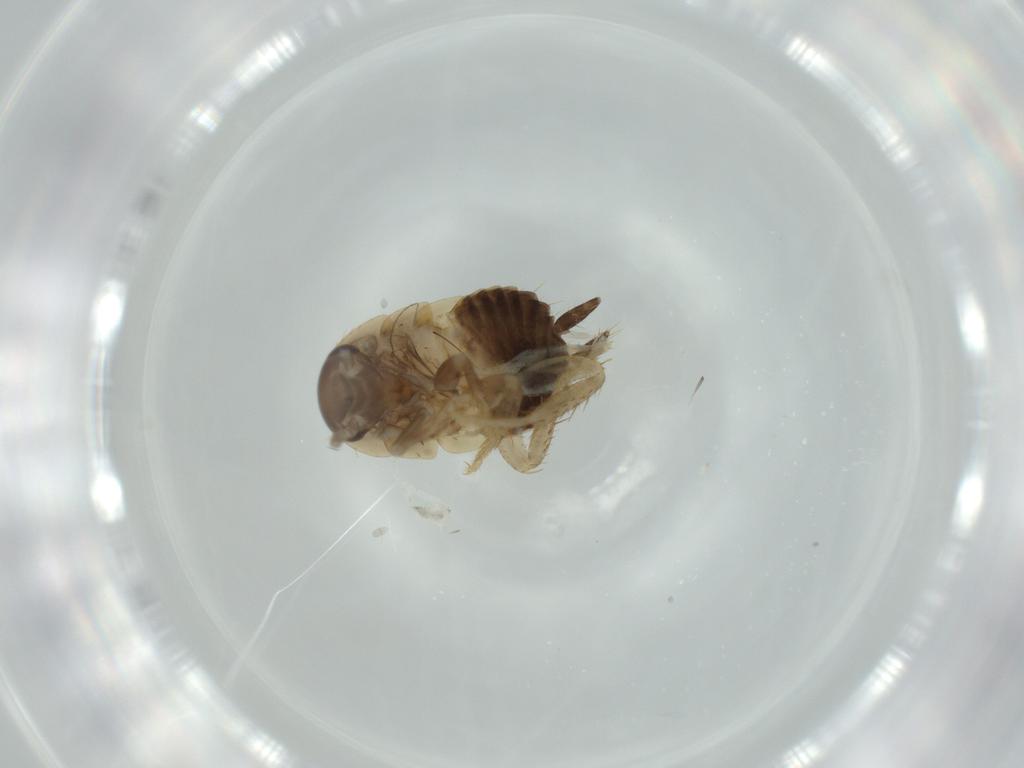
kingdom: Animalia
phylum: Arthropoda
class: Insecta
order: Blattodea
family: Ectobiidae
